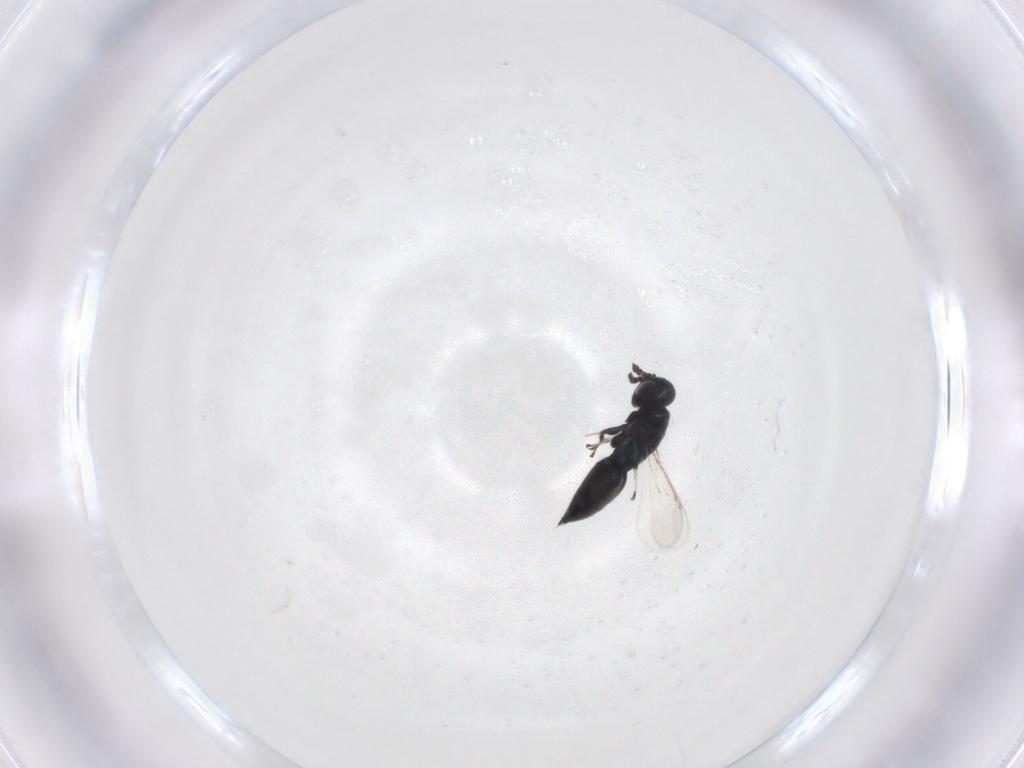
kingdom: Animalia
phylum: Arthropoda
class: Insecta
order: Hymenoptera
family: Eulophidae
